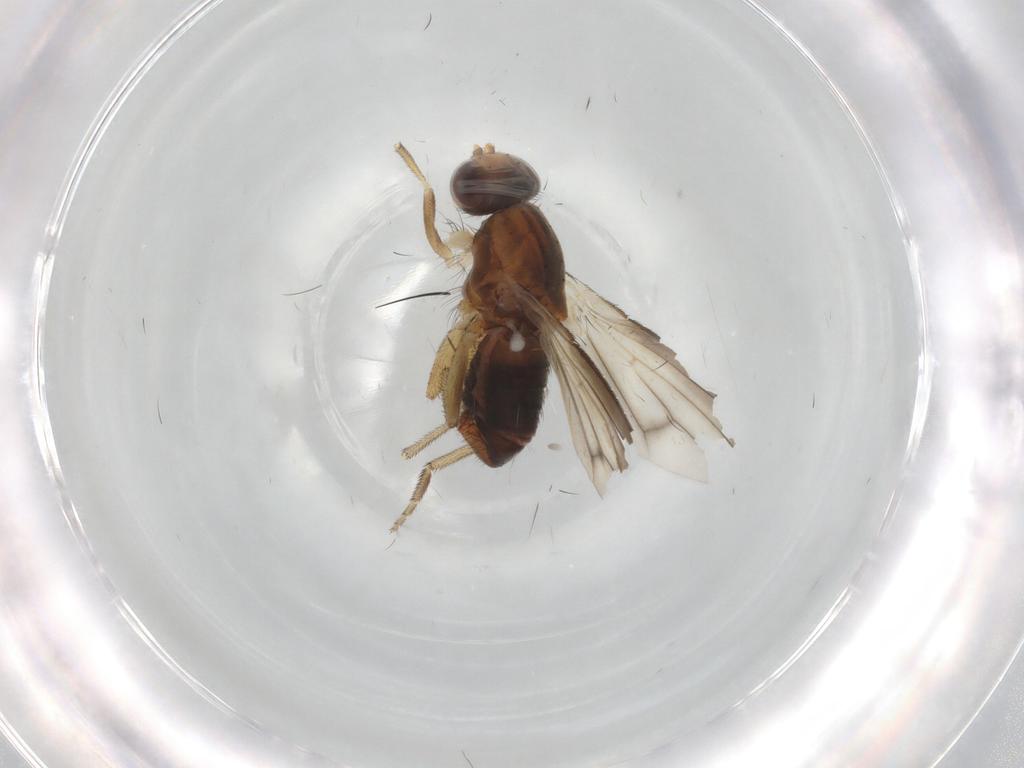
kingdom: Animalia
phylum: Arthropoda
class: Insecta
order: Diptera
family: Heleomyzidae
